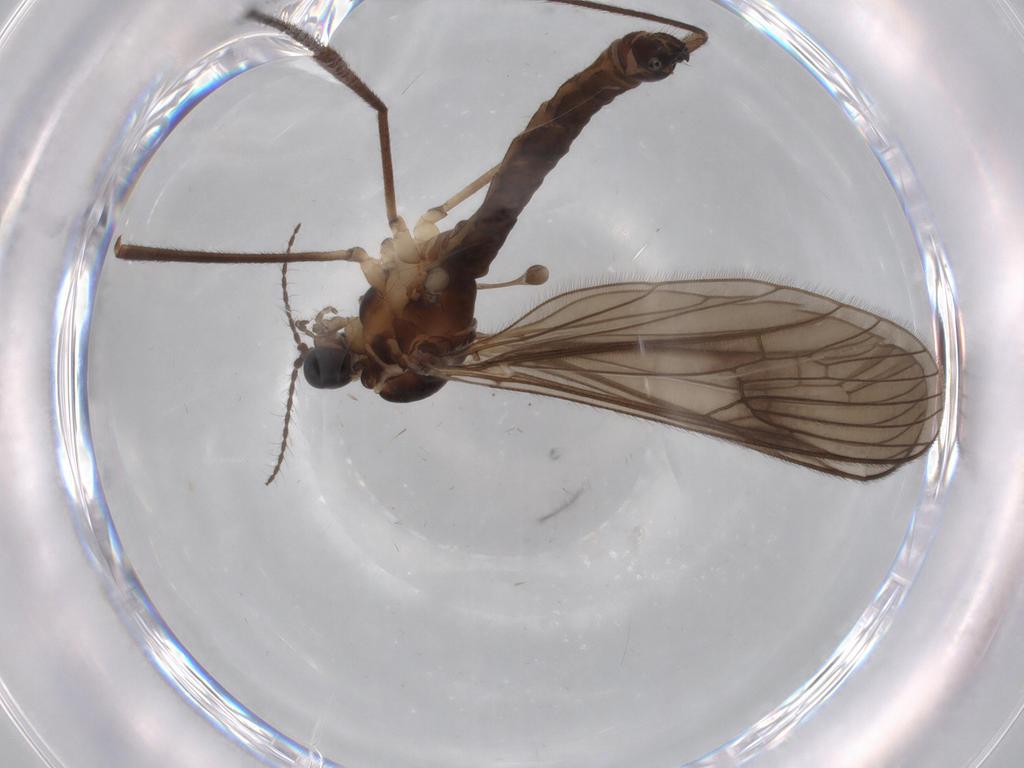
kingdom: Animalia
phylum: Arthropoda
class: Insecta
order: Diptera
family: Limoniidae
